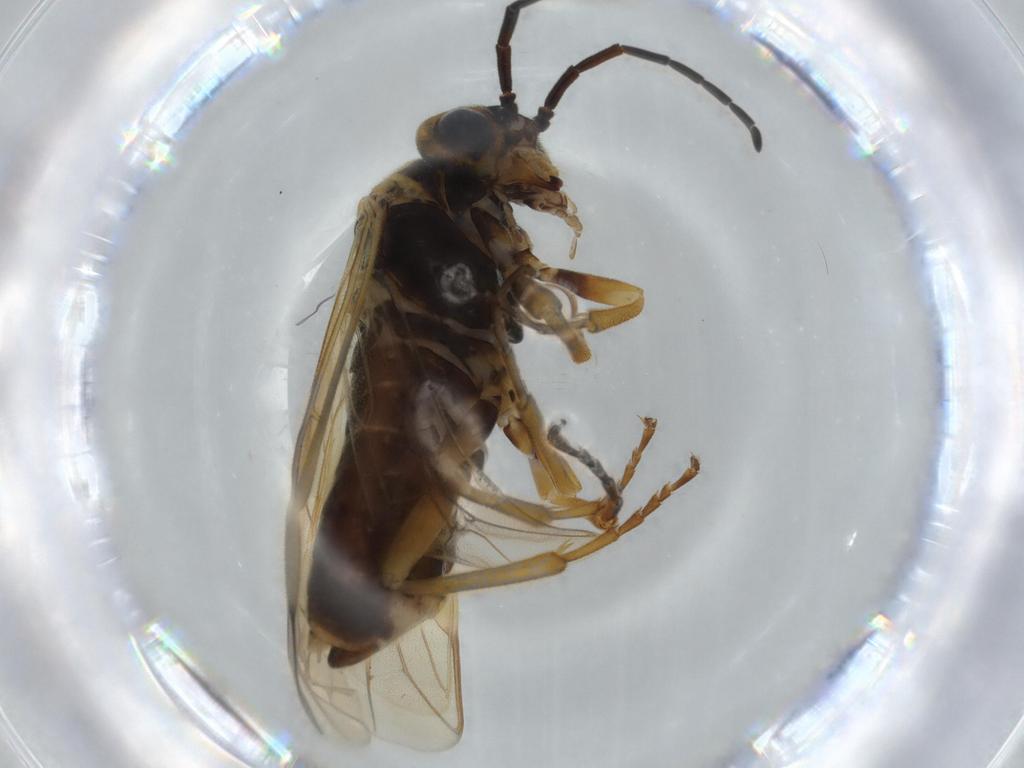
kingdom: Animalia
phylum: Arthropoda
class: Insecta
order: Hymenoptera
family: Tenthredinidae
